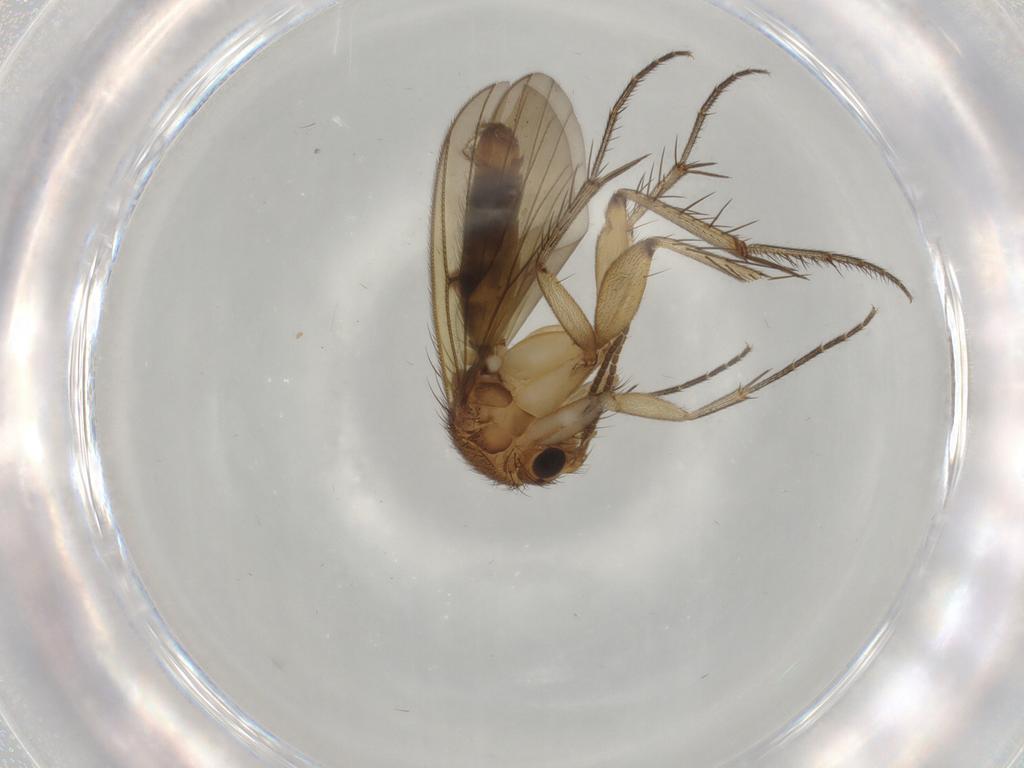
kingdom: Animalia
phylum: Arthropoda
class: Insecta
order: Diptera
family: Mycetophilidae
